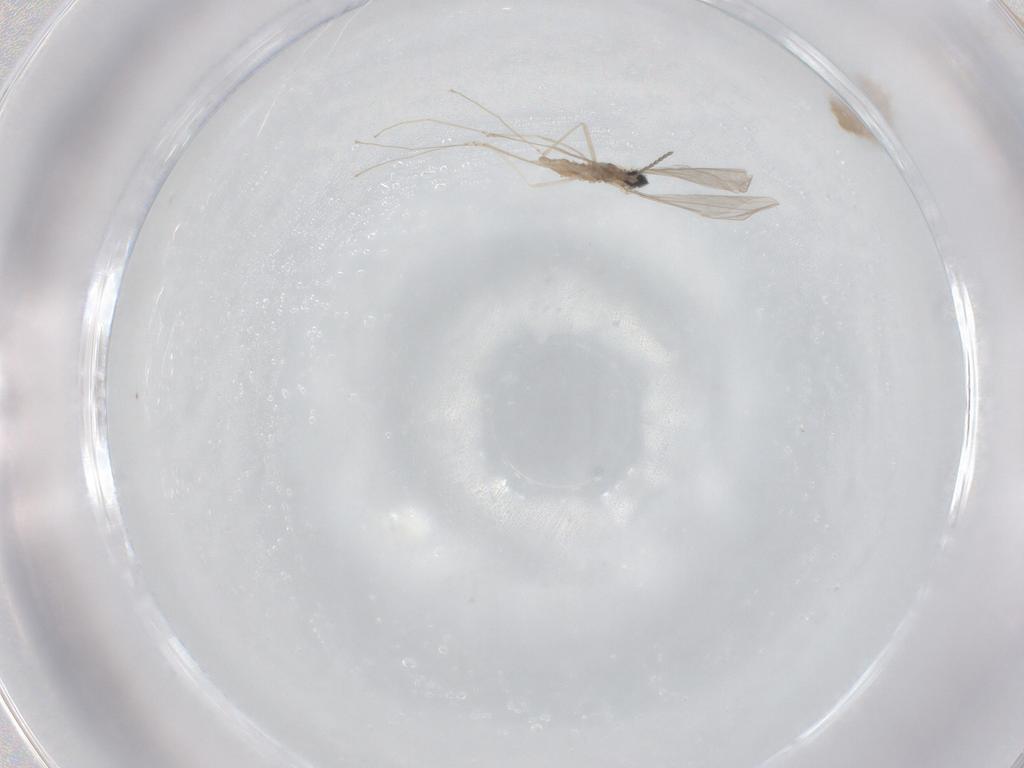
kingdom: Animalia
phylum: Arthropoda
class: Insecta
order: Diptera
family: Cecidomyiidae
